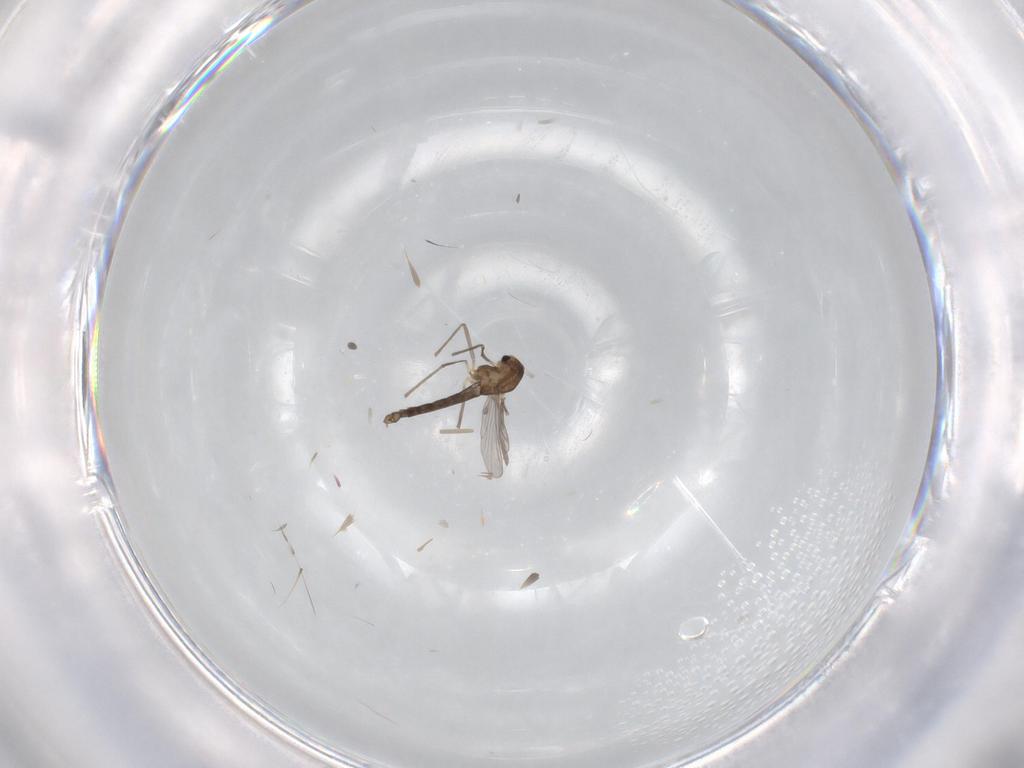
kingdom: Animalia
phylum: Arthropoda
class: Insecta
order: Diptera
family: Chironomidae
